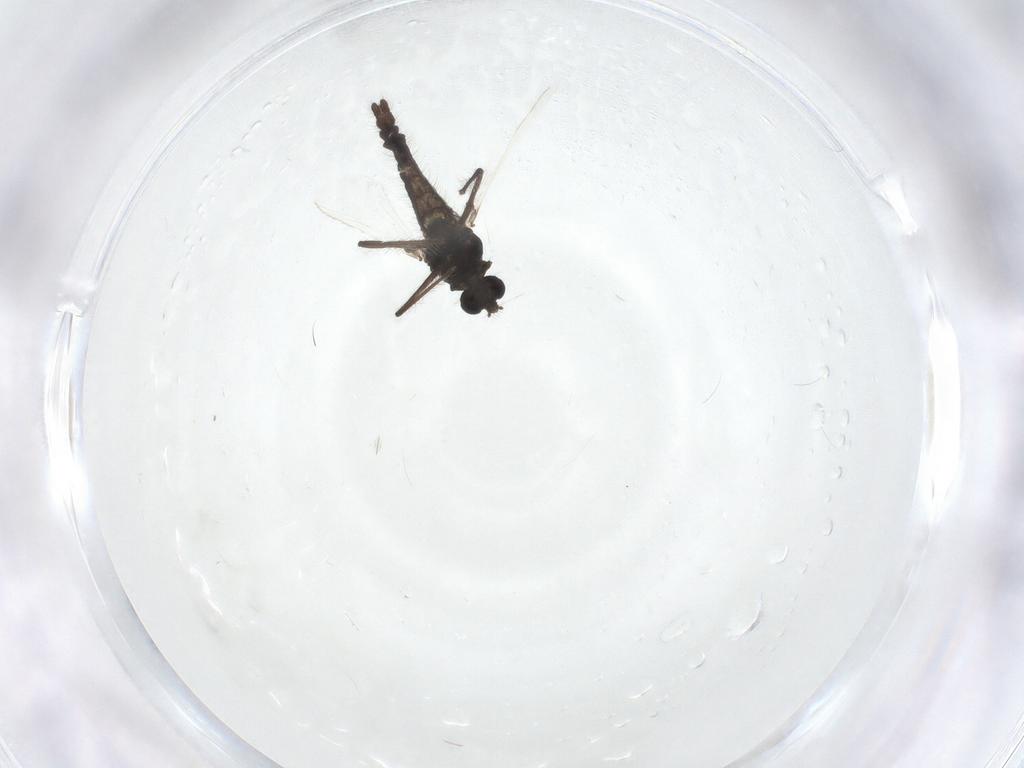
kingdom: Animalia
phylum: Arthropoda
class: Insecta
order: Diptera
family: Chironomidae
